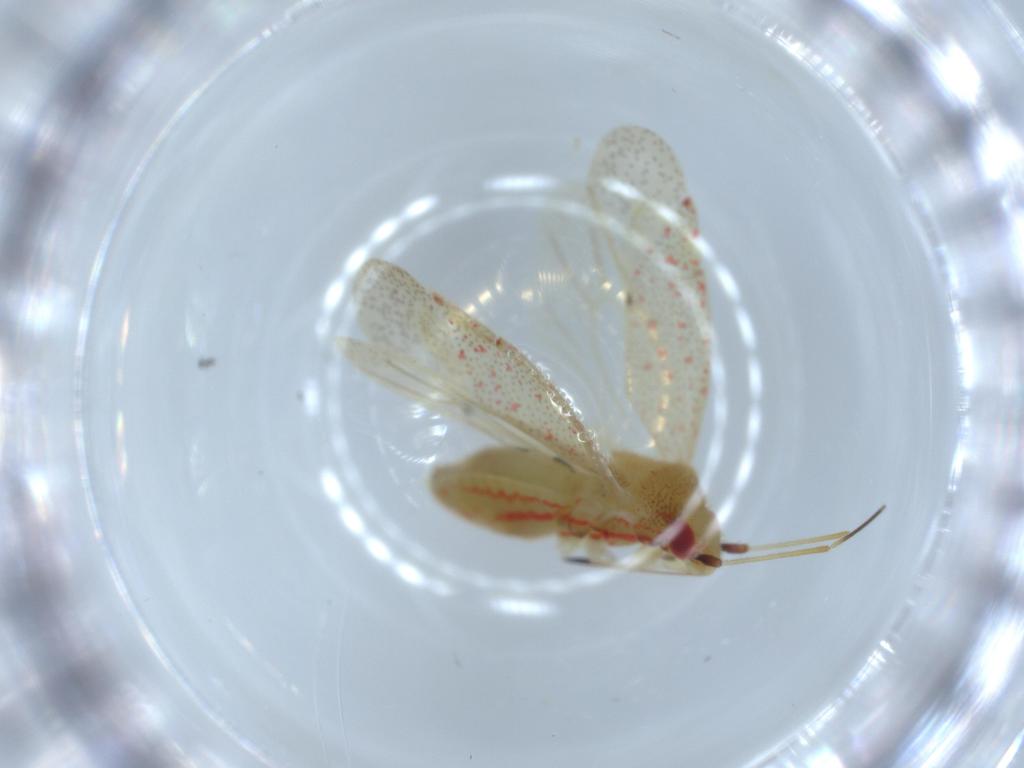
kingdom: Animalia
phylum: Arthropoda
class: Insecta
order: Hemiptera
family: Miridae
